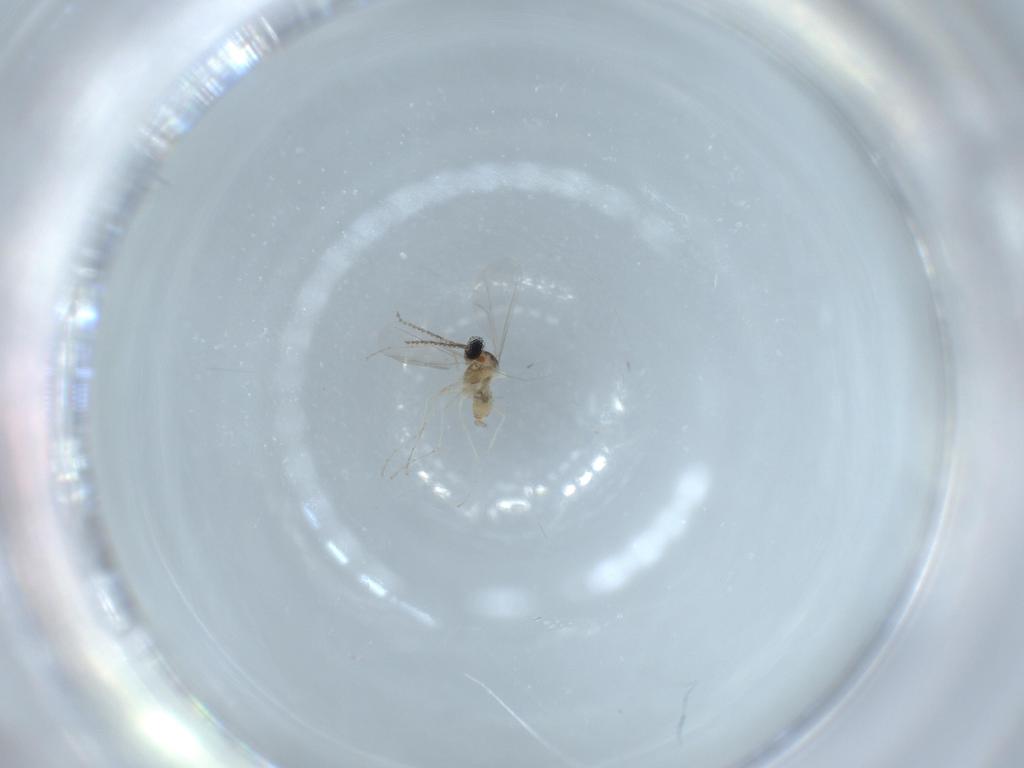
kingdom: Animalia
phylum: Arthropoda
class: Insecta
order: Diptera
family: Cecidomyiidae
